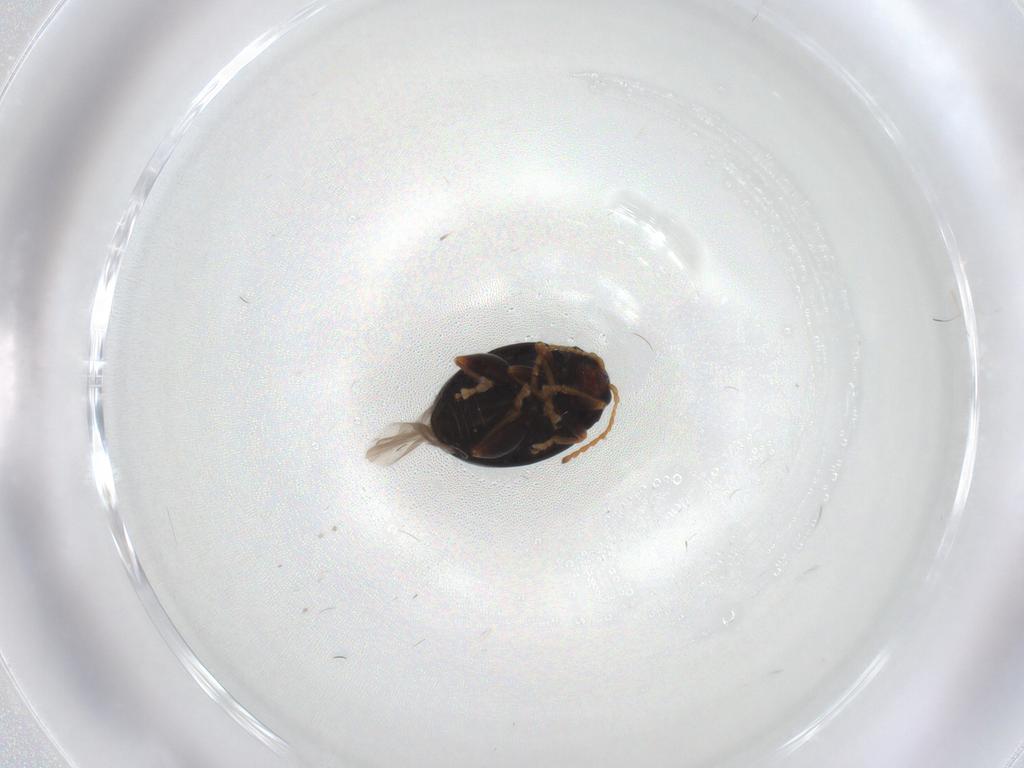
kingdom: Animalia
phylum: Arthropoda
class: Insecta
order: Coleoptera
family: Chrysomelidae
